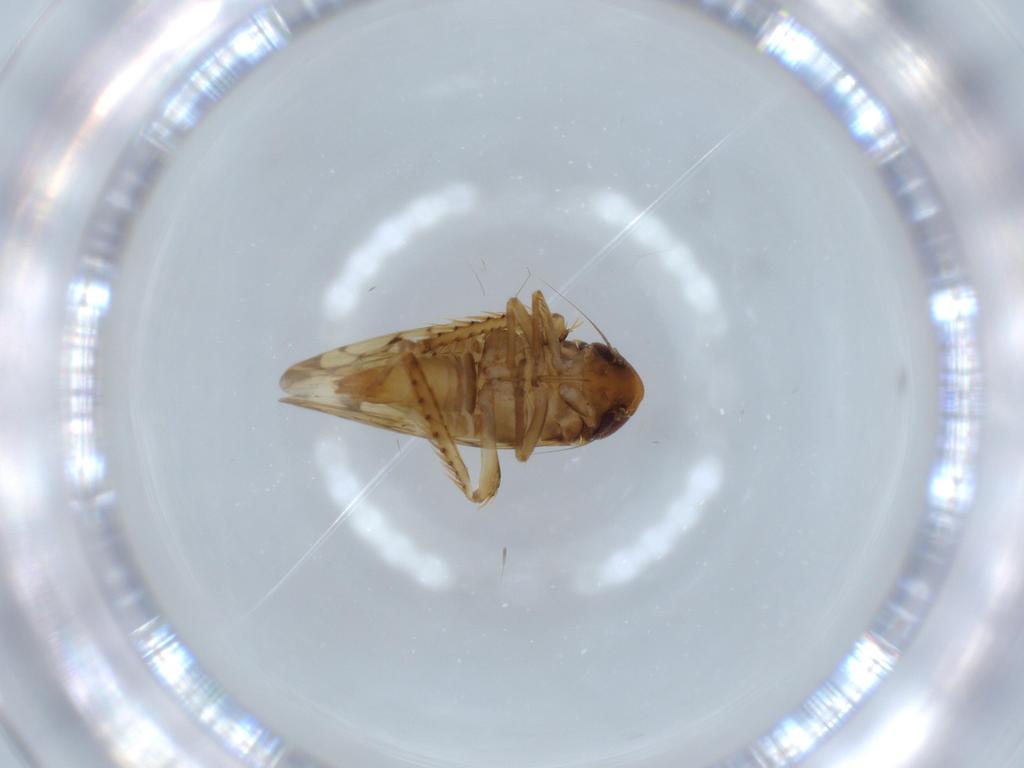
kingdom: Animalia
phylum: Arthropoda
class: Insecta
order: Hemiptera
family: Cicadellidae
